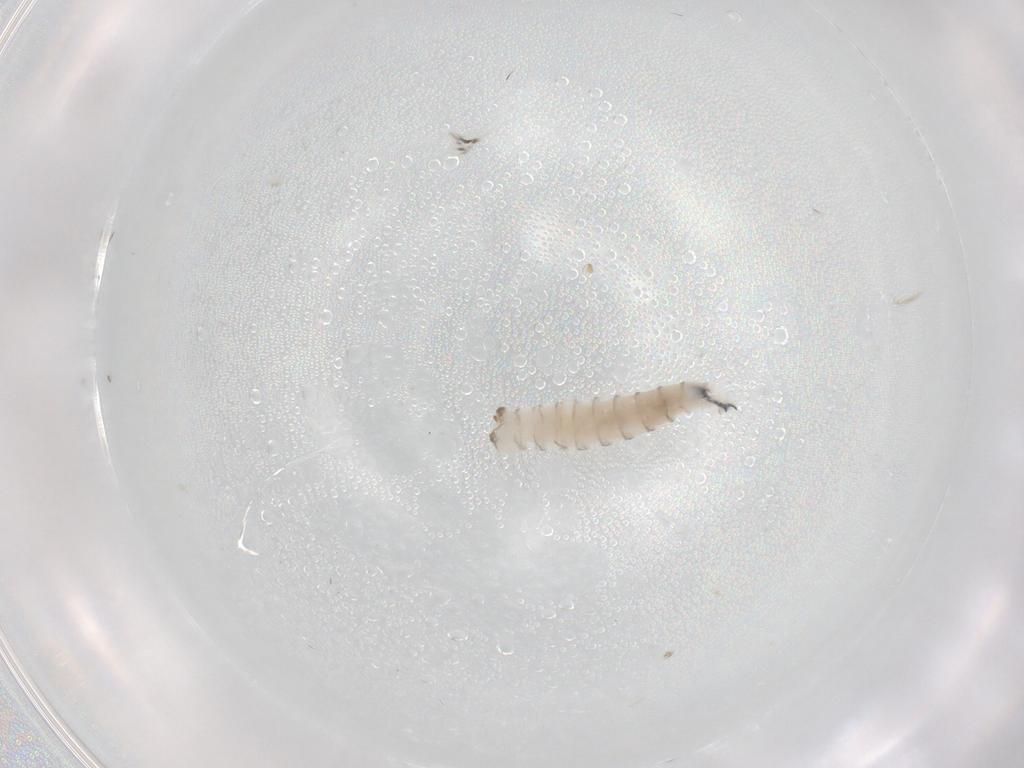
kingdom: Animalia
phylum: Arthropoda
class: Insecta
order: Diptera
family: Sarcophagidae
